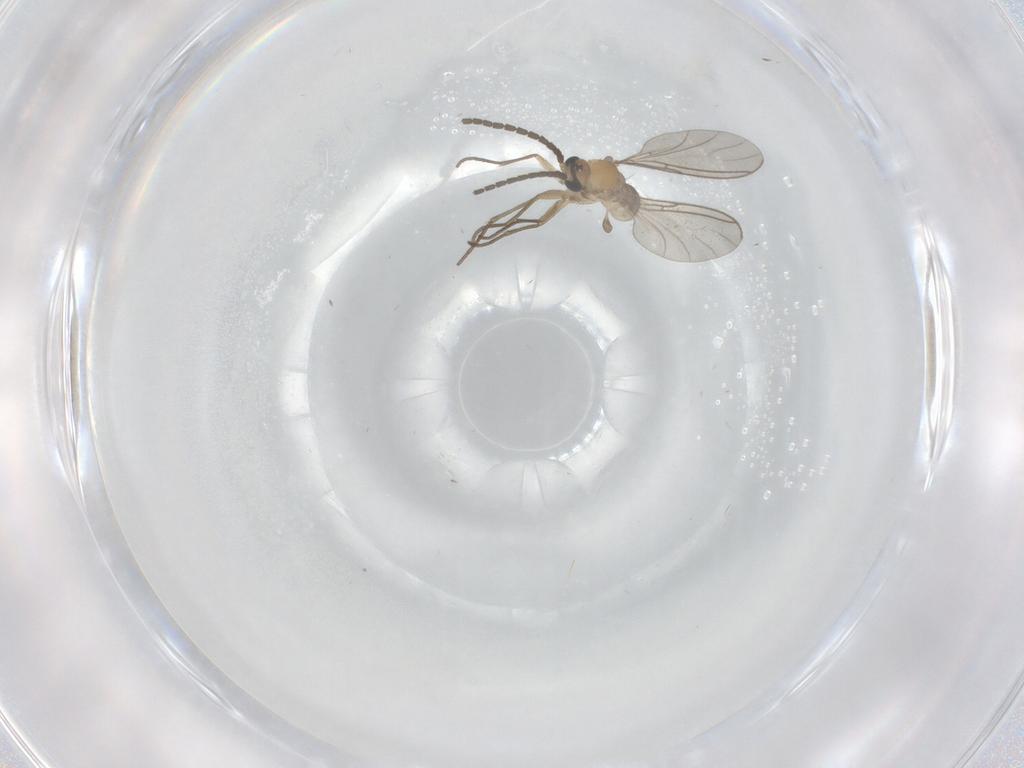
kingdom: Animalia
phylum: Arthropoda
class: Insecta
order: Diptera
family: Sciaridae
